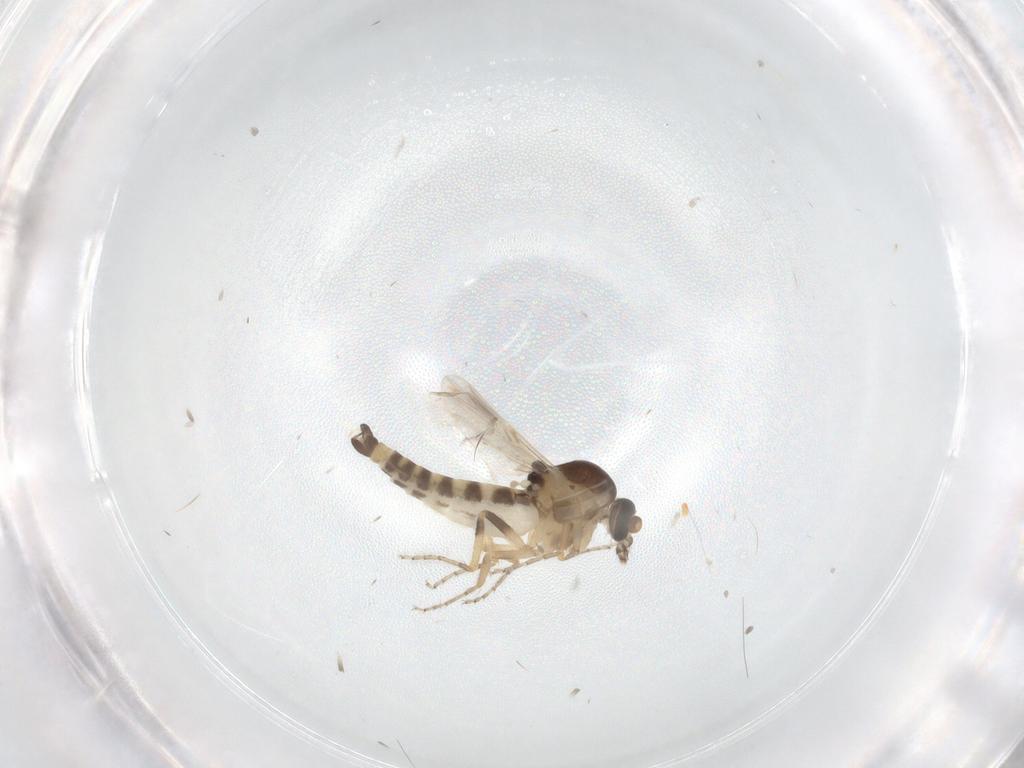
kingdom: Animalia
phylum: Arthropoda
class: Insecta
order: Diptera
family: Ceratopogonidae
